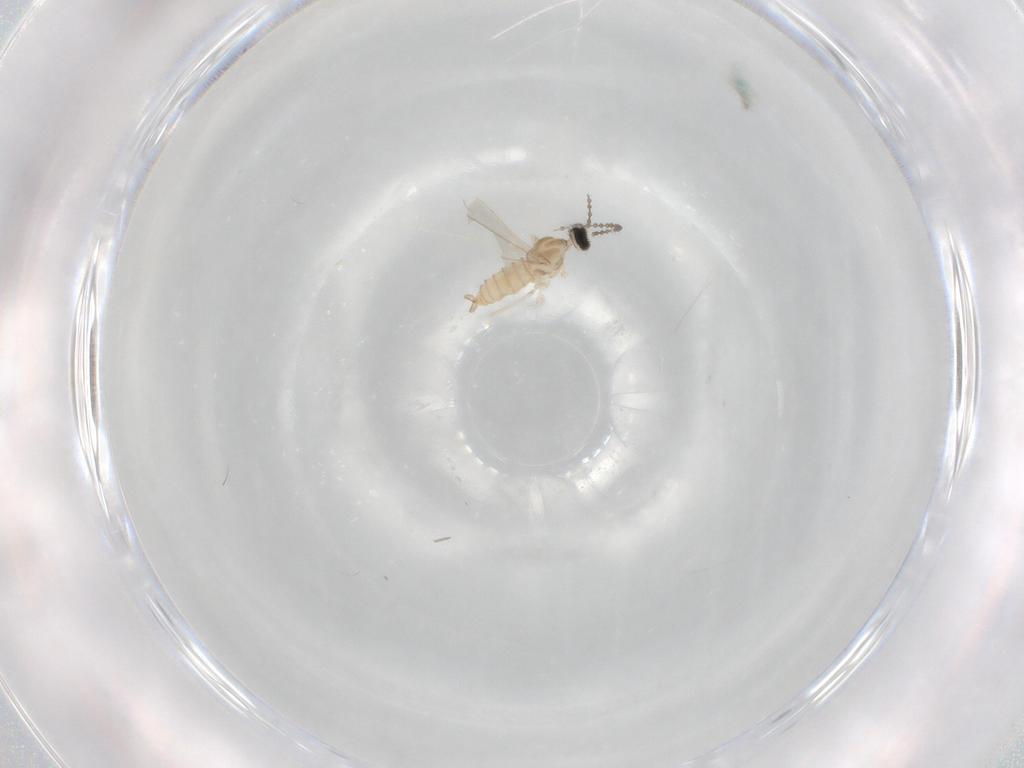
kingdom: Animalia
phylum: Arthropoda
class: Insecta
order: Diptera
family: Cecidomyiidae
